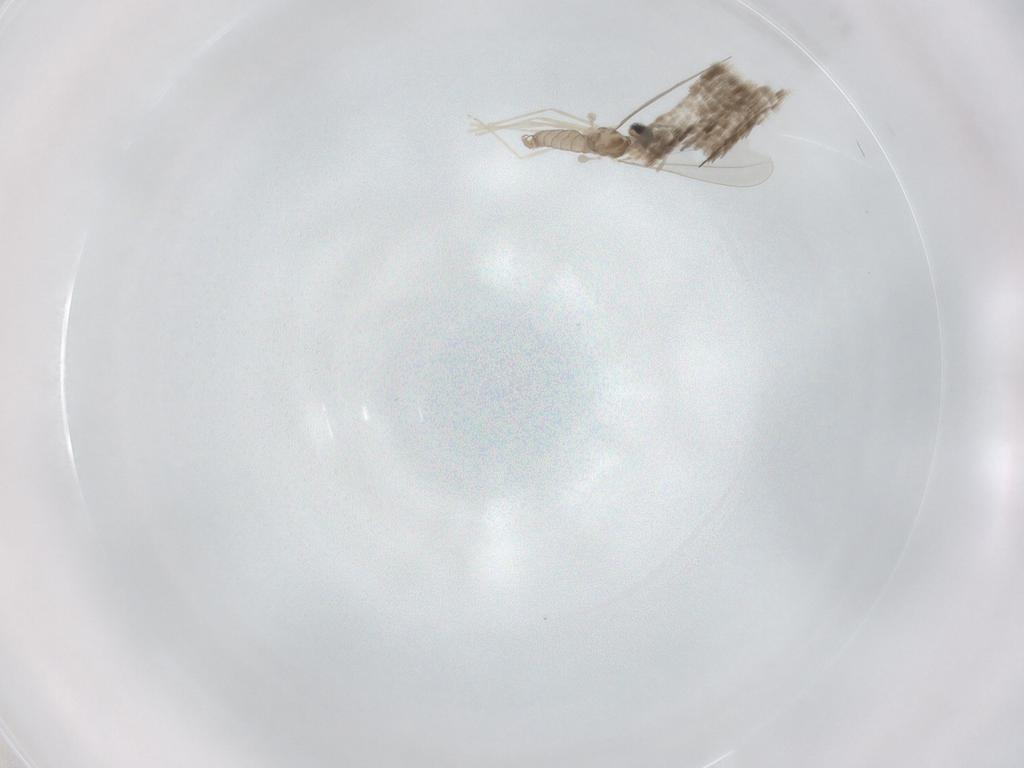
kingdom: Animalia
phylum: Arthropoda
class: Insecta
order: Diptera
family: Cecidomyiidae
